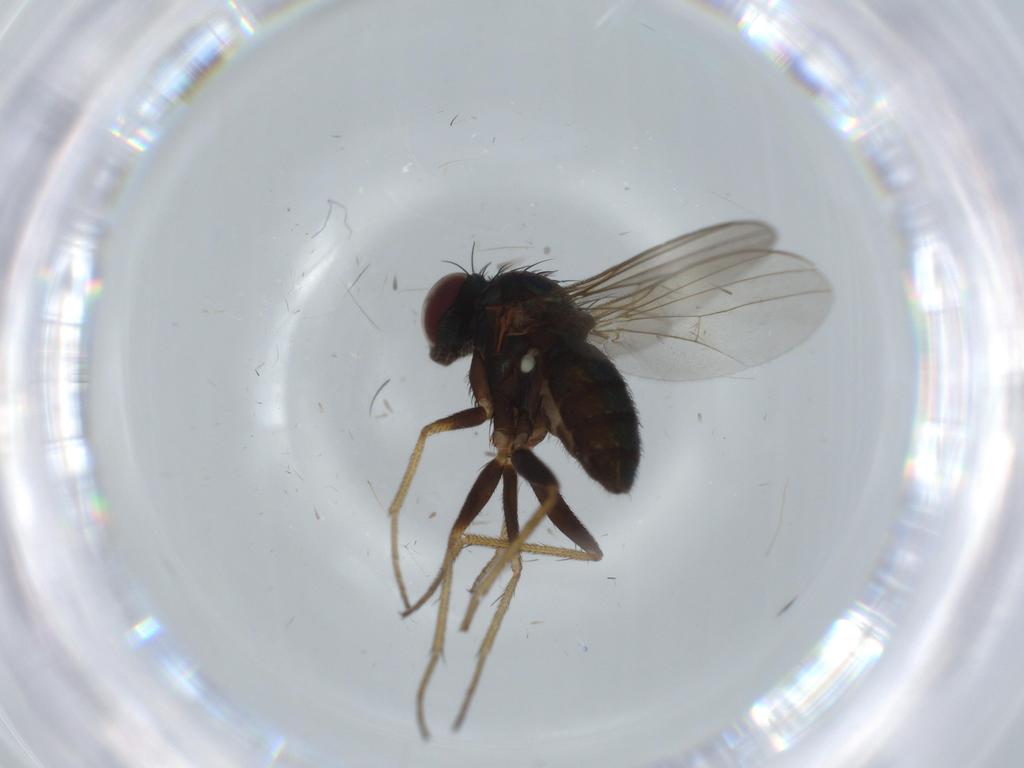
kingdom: Animalia
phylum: Arthropoda
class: Insecta
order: Diptera
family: Dolichopodidae
